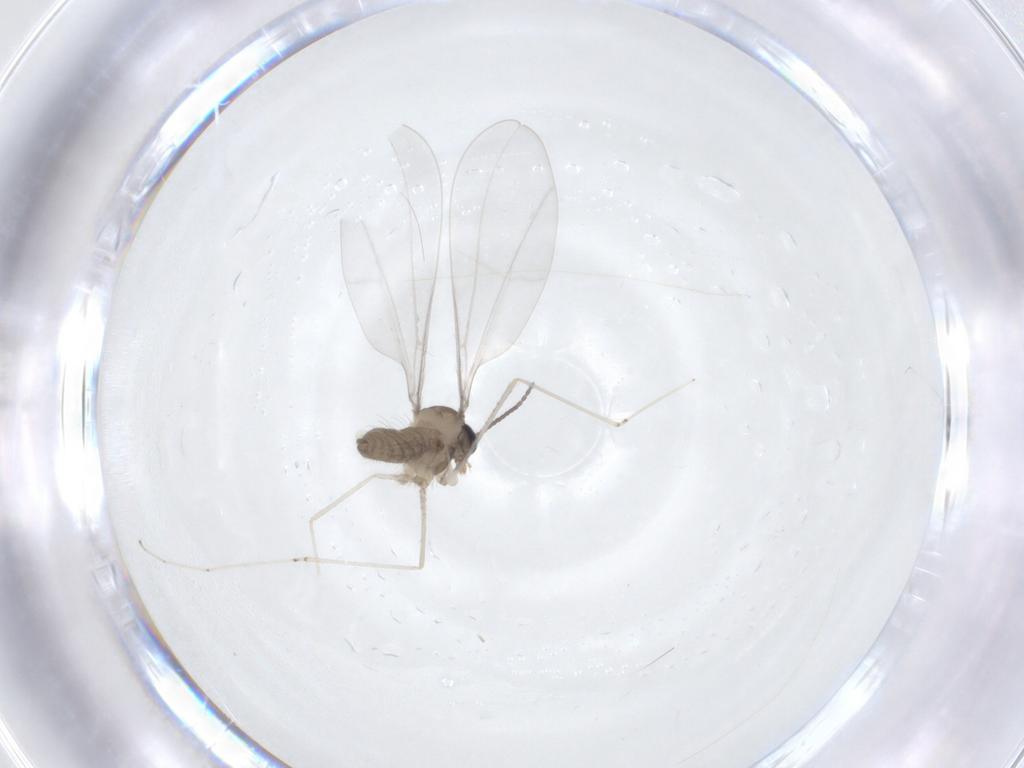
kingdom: Animalia
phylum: Arthropoda
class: Insecta
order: Diptera
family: Cecidomyiidae
